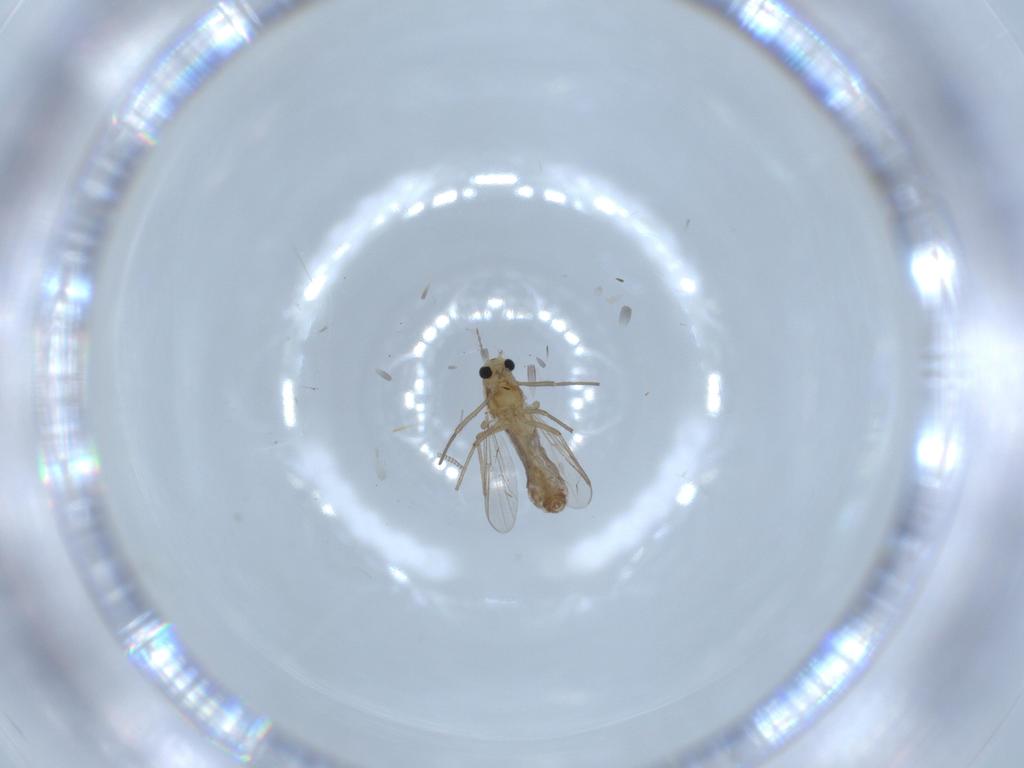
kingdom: Animalia
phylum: Arthropoda
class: Insecta
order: Diptera
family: Chironomidae
